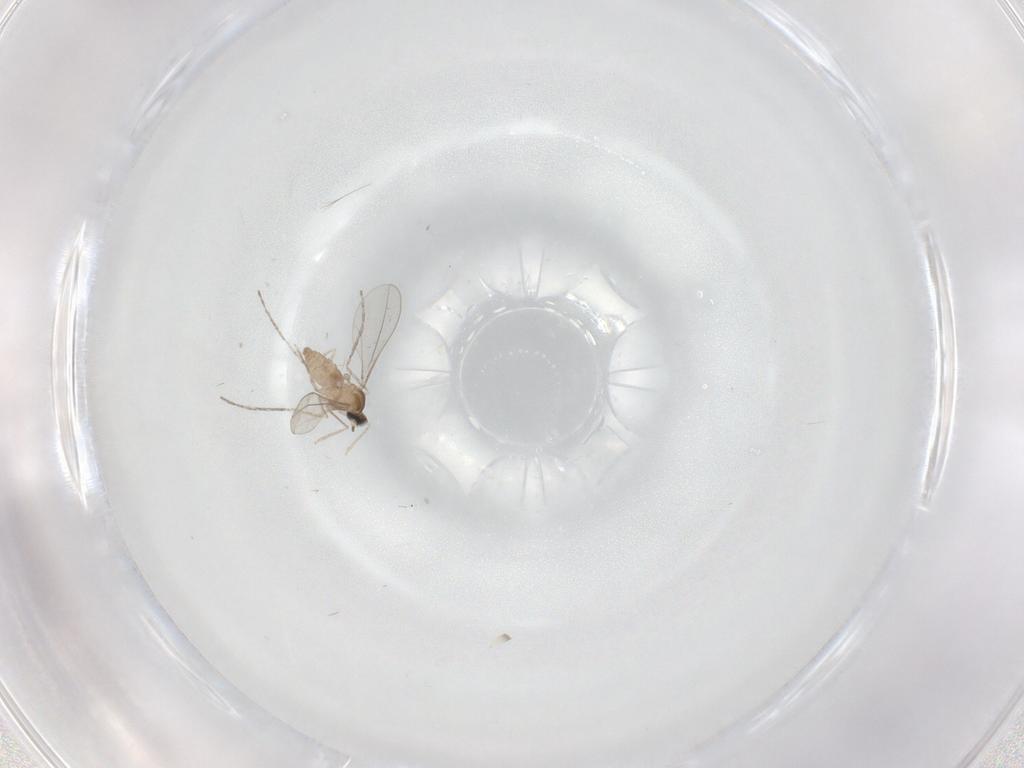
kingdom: Animalia
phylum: Arthropoda
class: Insecta
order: Diptera
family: Cecidomyiidae
